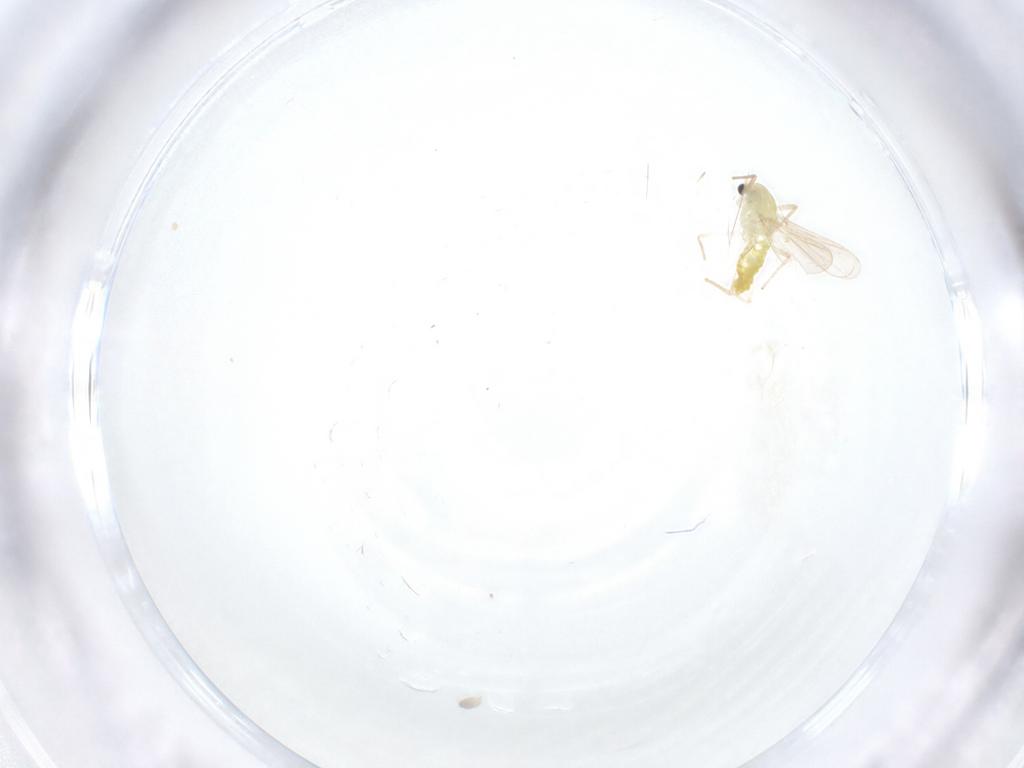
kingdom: Animalia
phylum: Arthropoda
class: Insecta
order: Diptera
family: Chironomidae
